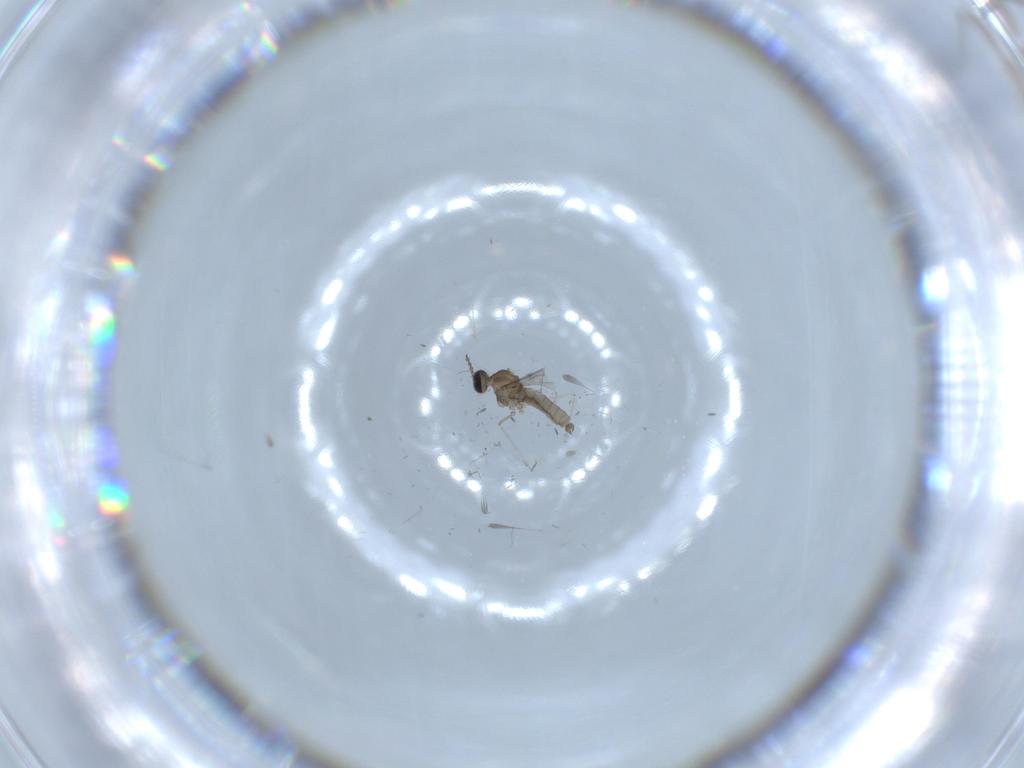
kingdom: Animalia
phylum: Arthropoda
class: Insecta
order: Diptera
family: Cecidomyiidae
